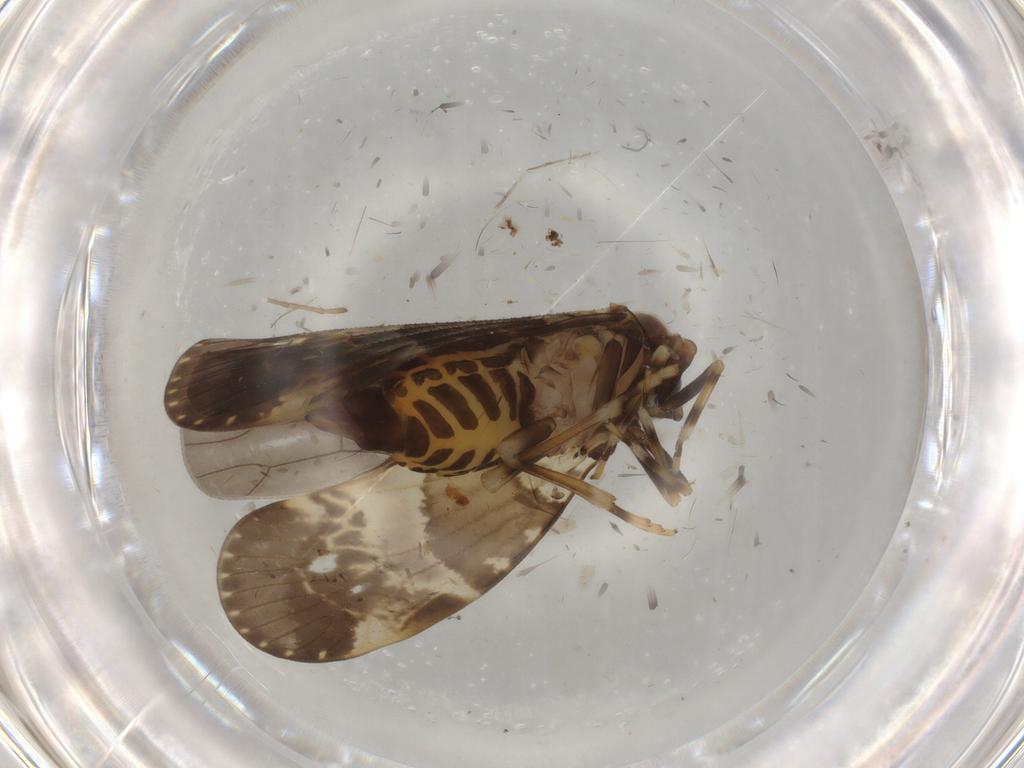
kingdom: Animalia
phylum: Arthropoda
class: Insecta
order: Hemiptera
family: Cixiidae
